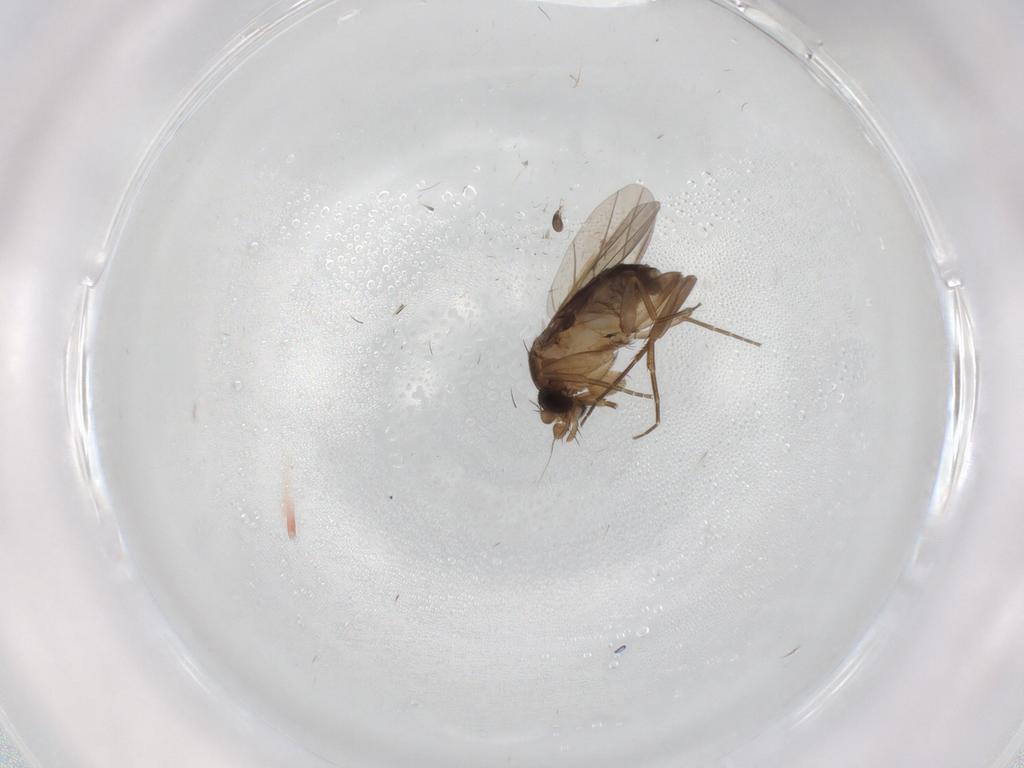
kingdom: Animalia
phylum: Arthropoda
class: Insecta
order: Diptera
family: Phoridae
